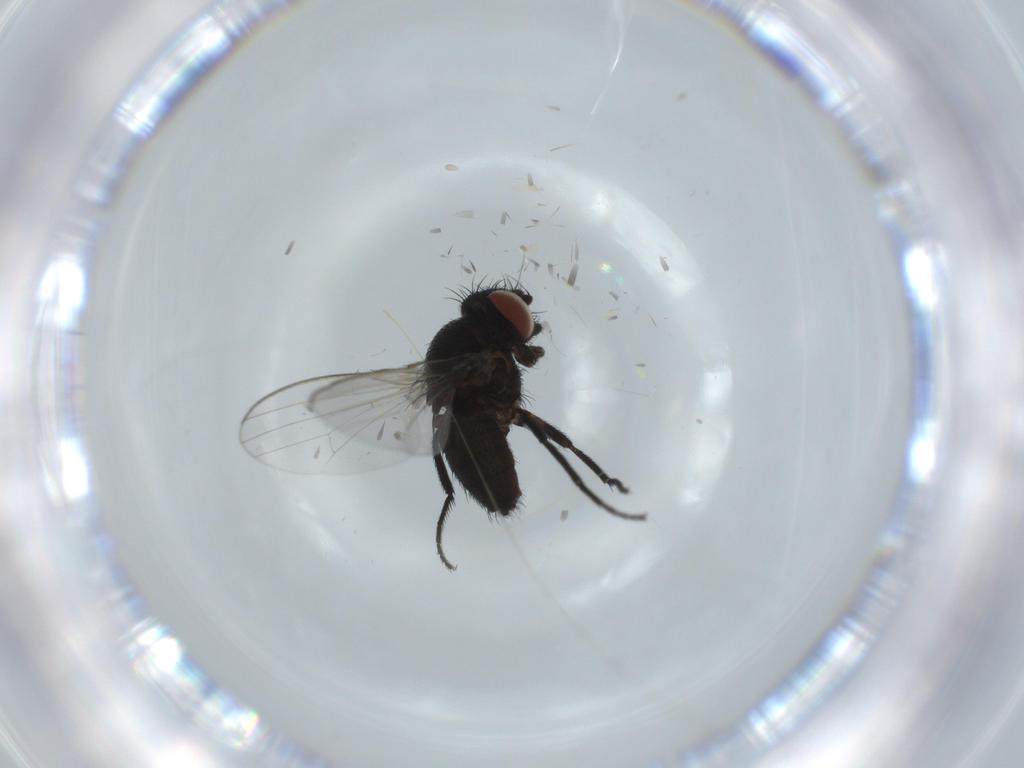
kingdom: Animalia
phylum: Arthropoda
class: Insecta
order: Diptera
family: Milichiidae
